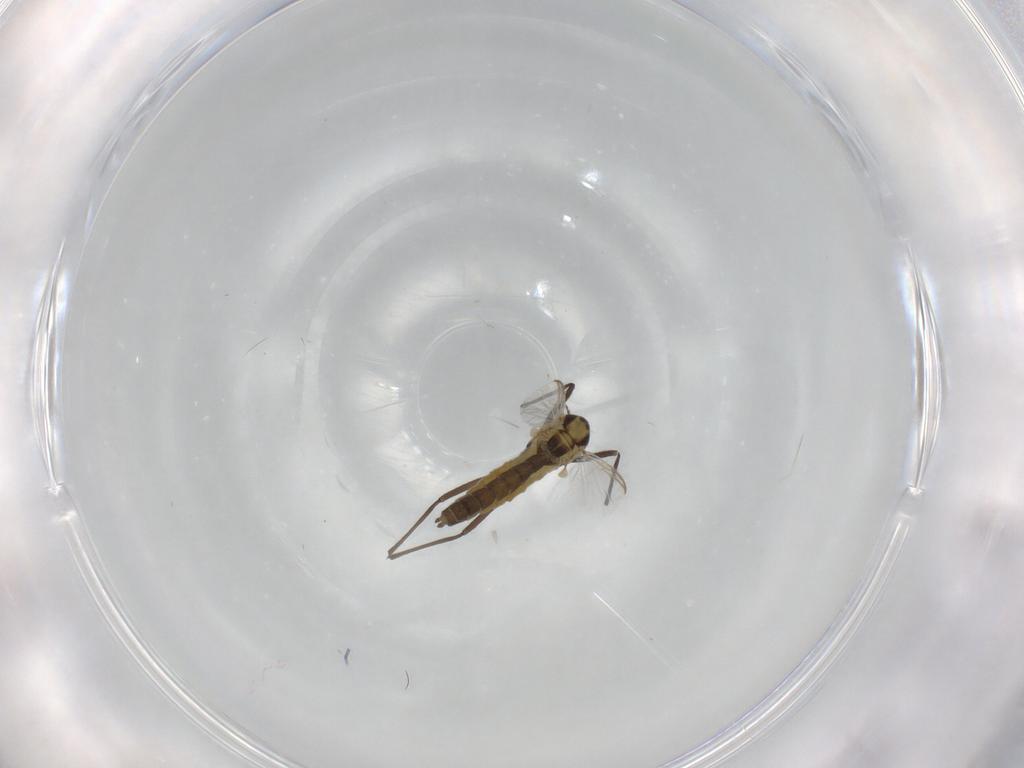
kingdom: Animalia
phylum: Arthropoda
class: Insecta
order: Diptera
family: Chironomidae
